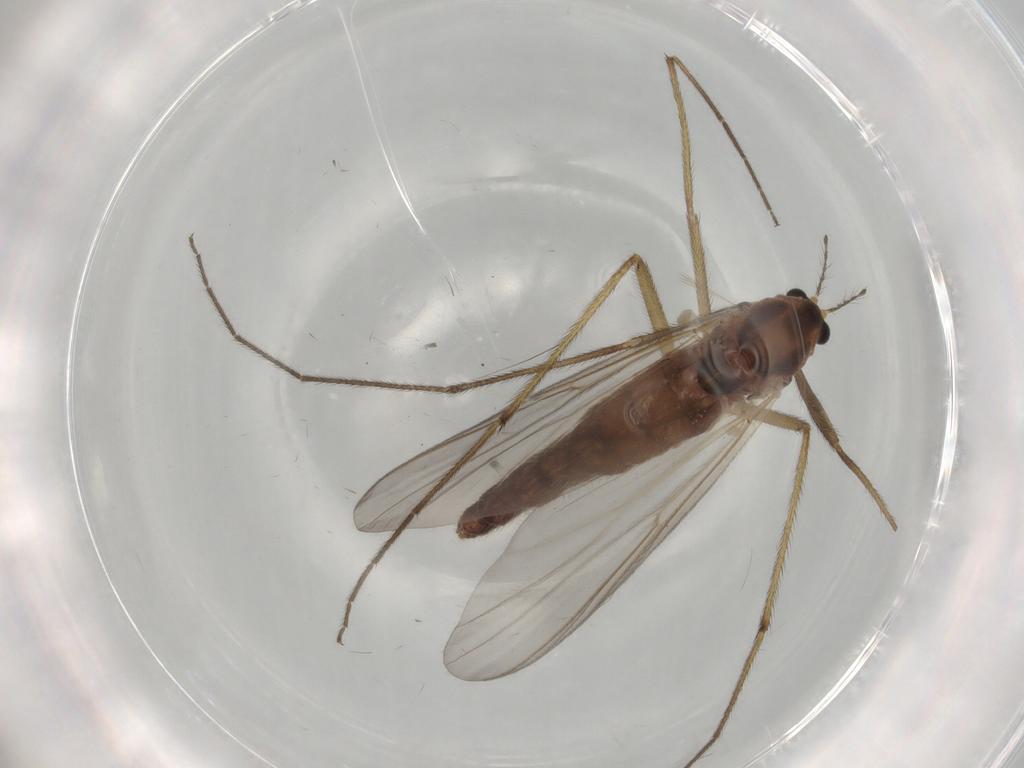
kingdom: Animalia
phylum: Arthropoda
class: Insecta
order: Diptera
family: Chironomidae
